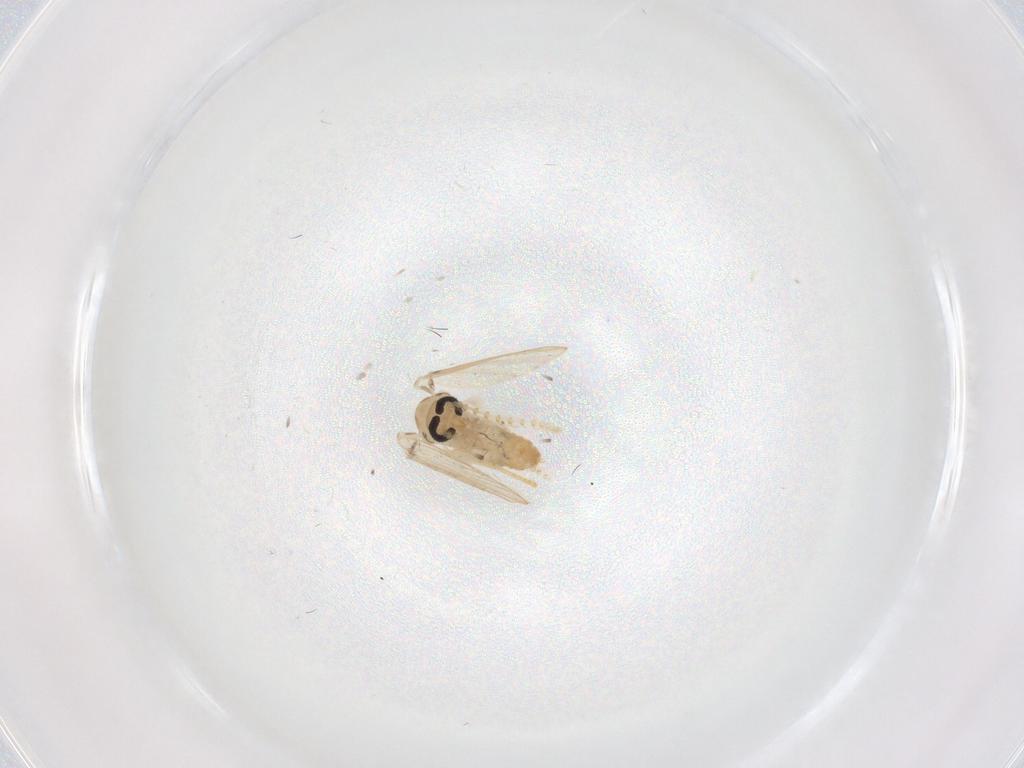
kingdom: Animalia
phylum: Arthropoda
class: Insecta
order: Diptera
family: Psychodidae
